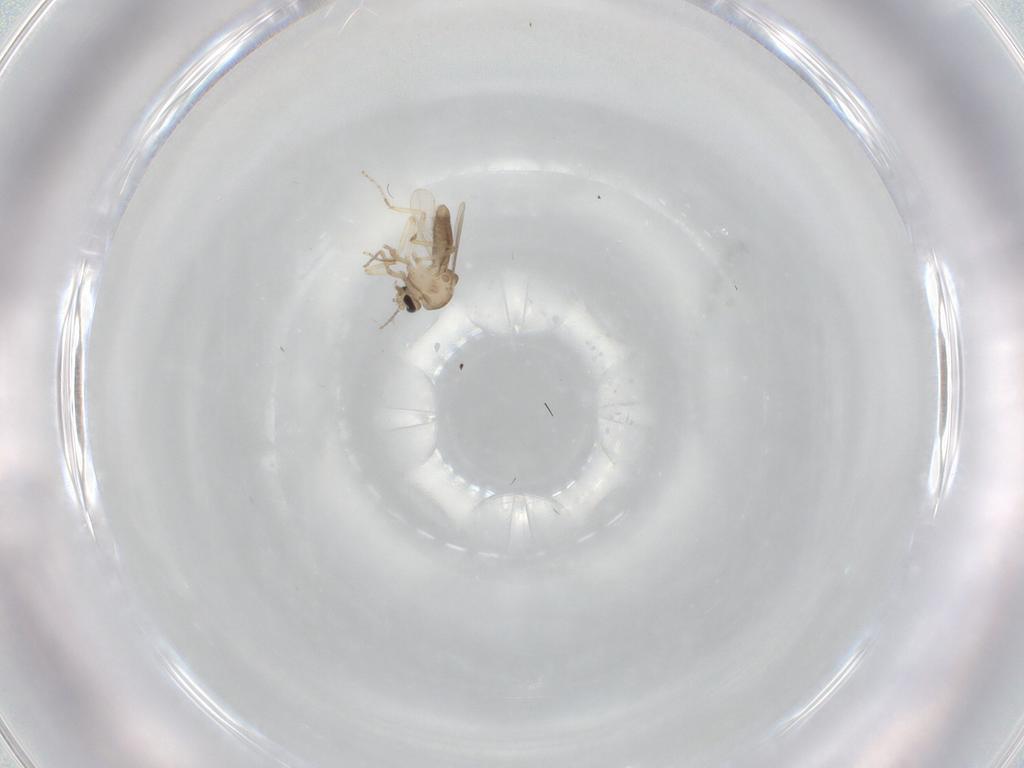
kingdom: Animalia
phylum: Arthropoda
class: Insecta
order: Diptera
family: Ceratopogonidae
